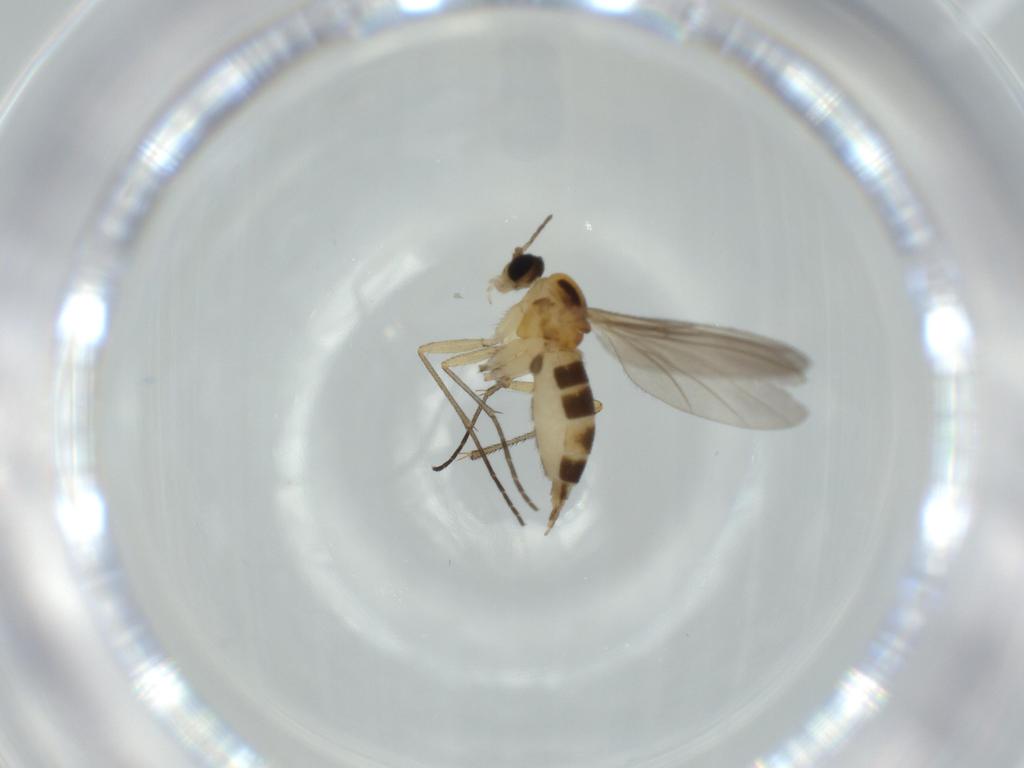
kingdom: Animalia
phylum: Arthropoda
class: Insecta
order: Diptera
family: Sciaridae
